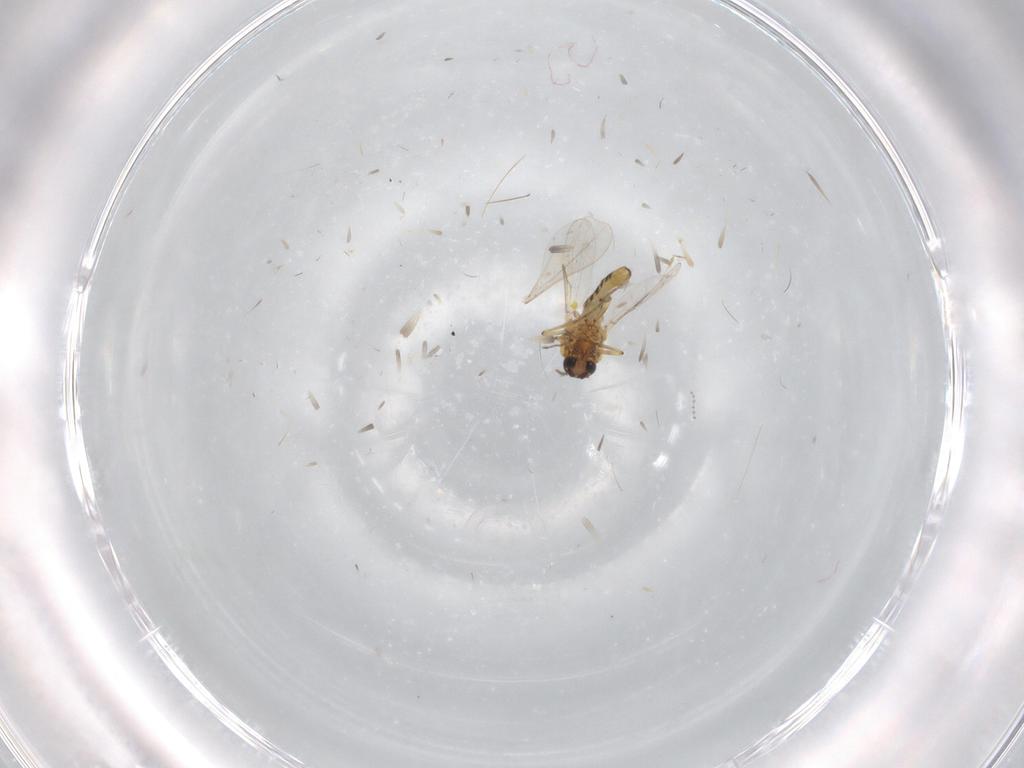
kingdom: Animalia
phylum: Arthropoda
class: Insecta
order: Diptera
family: Ceratopogonidae
